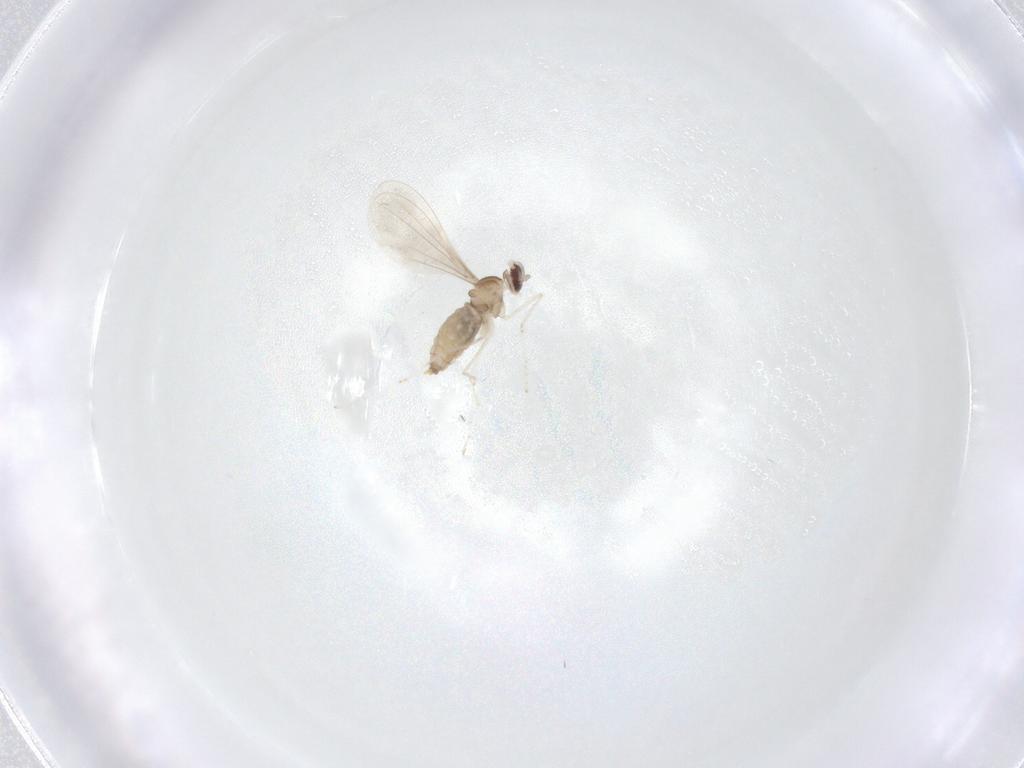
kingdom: Animalia
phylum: Arthropoda
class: Insecta
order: Diptera
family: Cecidomyiidae
